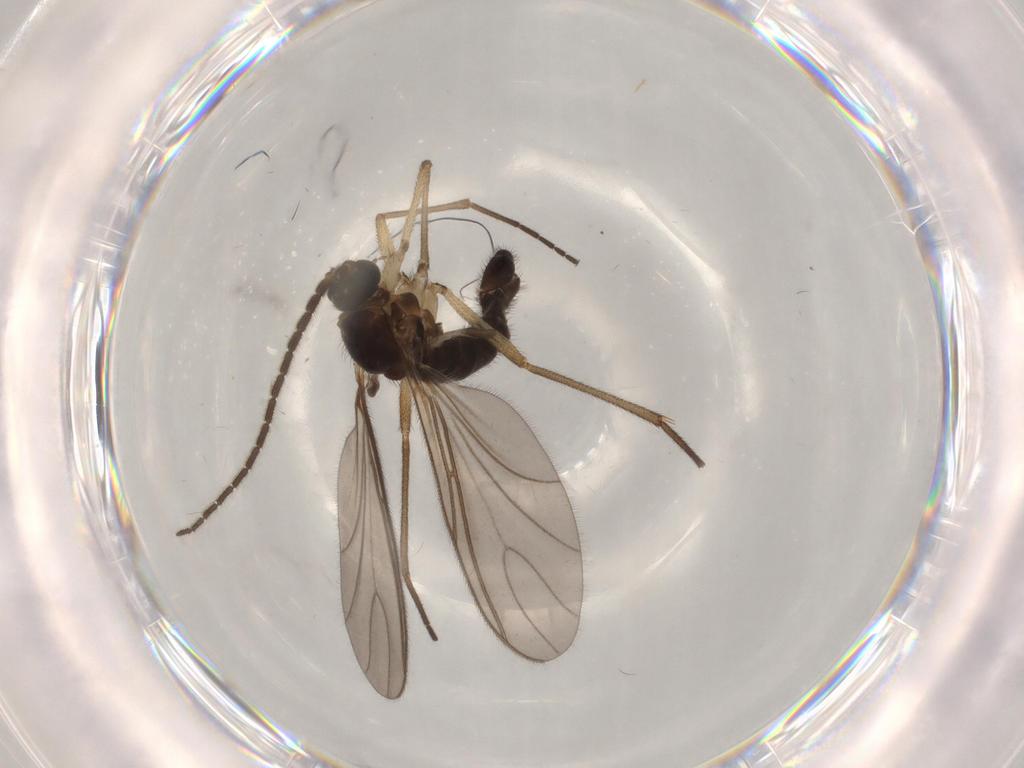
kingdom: Animalia
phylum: Arthropoda
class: Insecta
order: Diptera
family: Sciaridae
